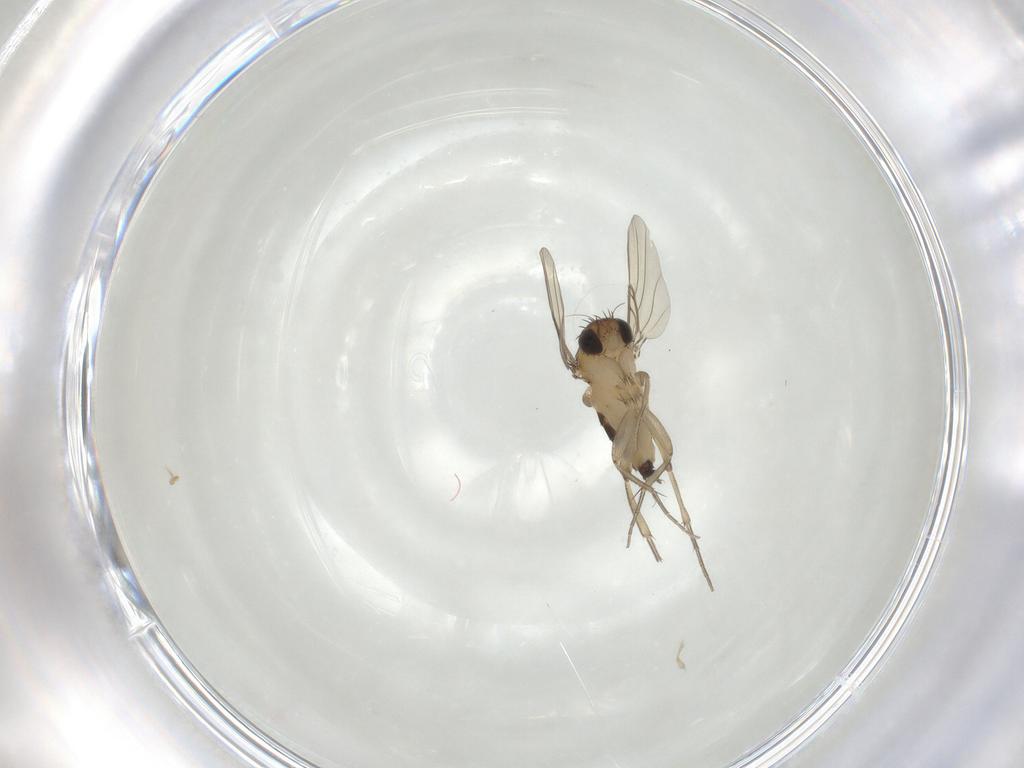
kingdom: Animalia
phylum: Arthropoda
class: Insecta
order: Diptera
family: Phoridae
